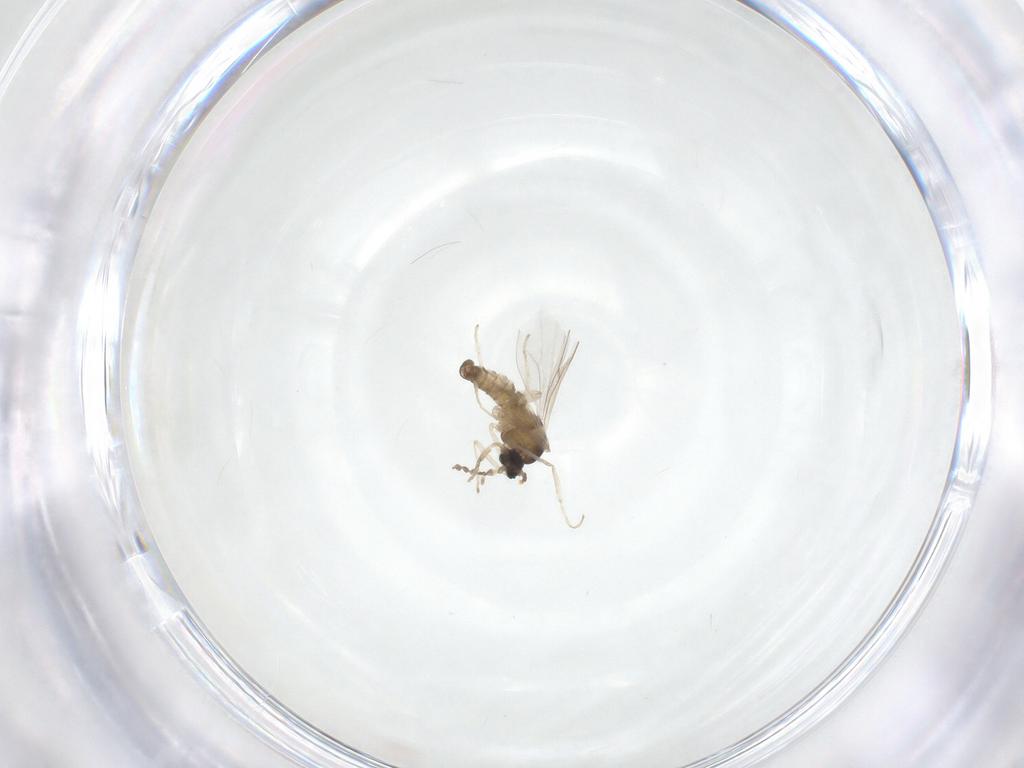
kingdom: Animalia
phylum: Arthropoda
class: Insecta
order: Diptera
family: Cecidomyiidae
